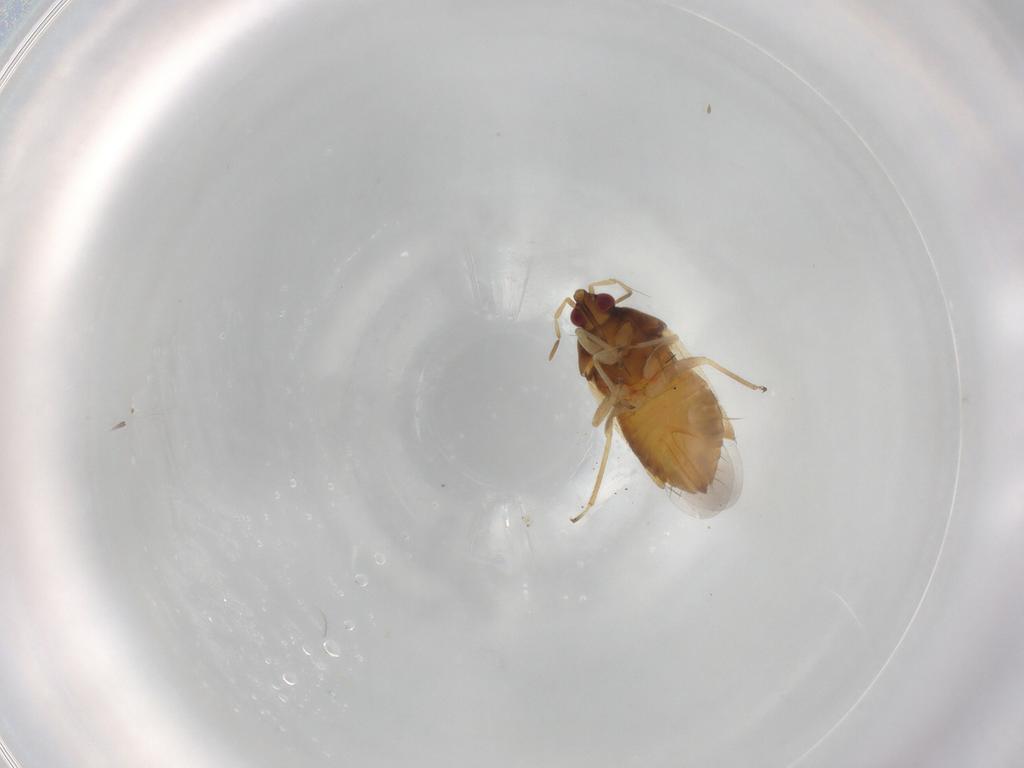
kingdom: Animalia
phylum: Arthropoda
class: Insecta
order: Hemiptera
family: Anthocoridae
